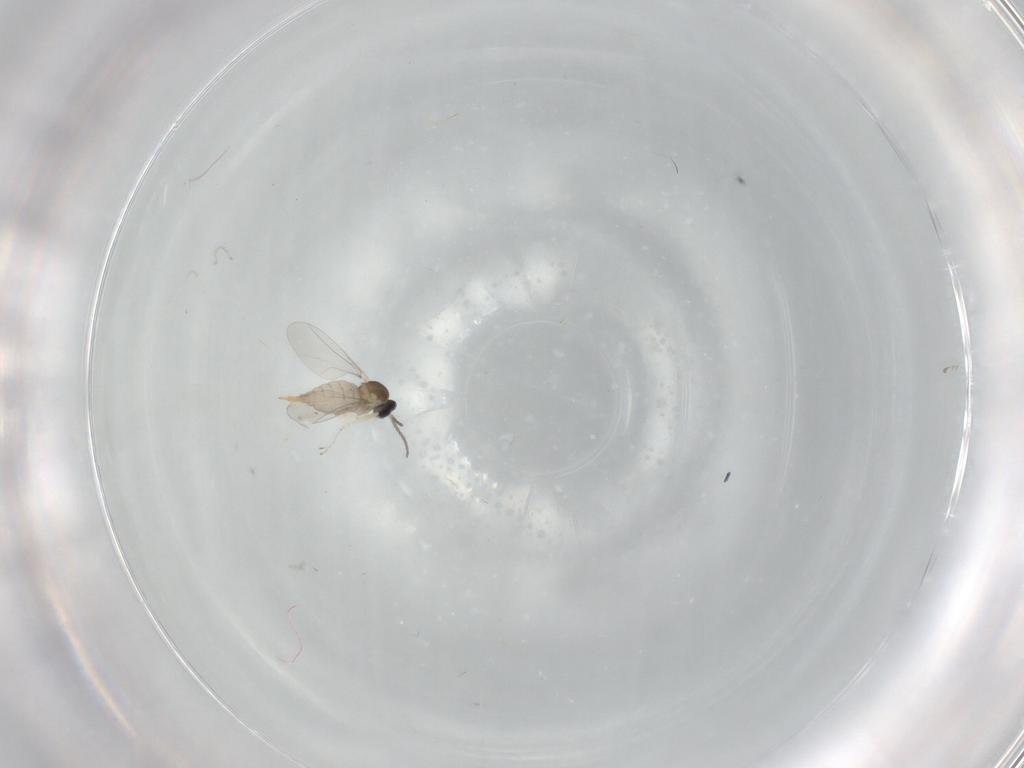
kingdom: Animalia
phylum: Arthropoda
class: Insecta
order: Diptera
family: Cecidomyiidae
